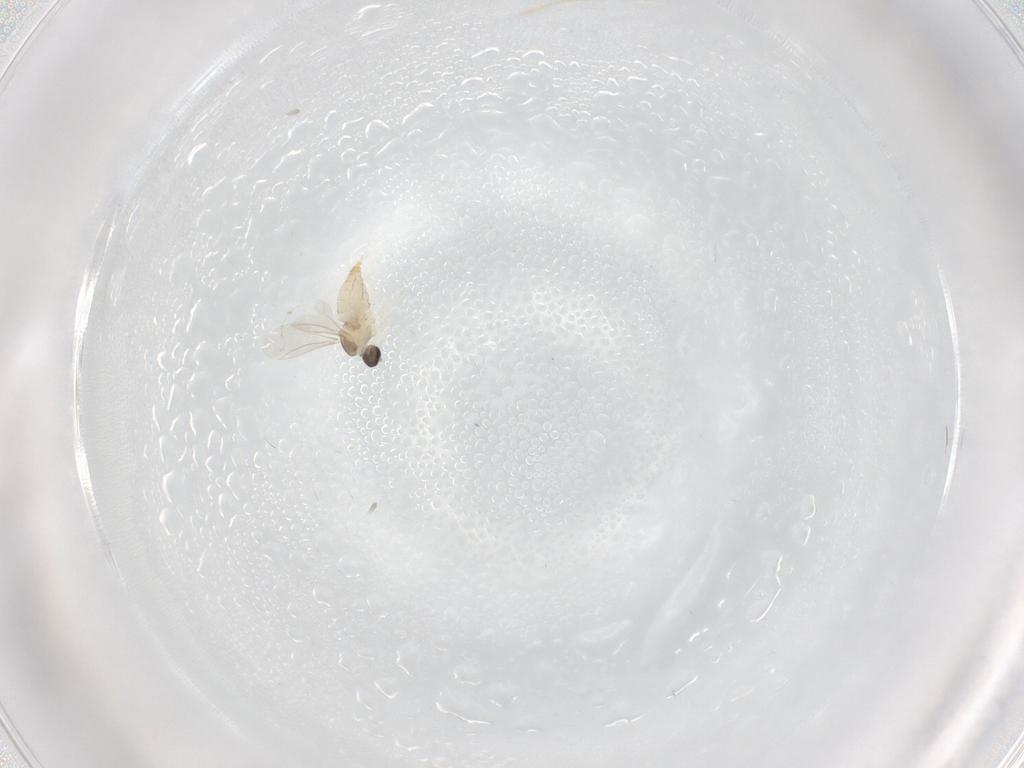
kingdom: Animalia
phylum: Arthropoda
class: Insecta
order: Diptera
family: Cecidomyiidae
